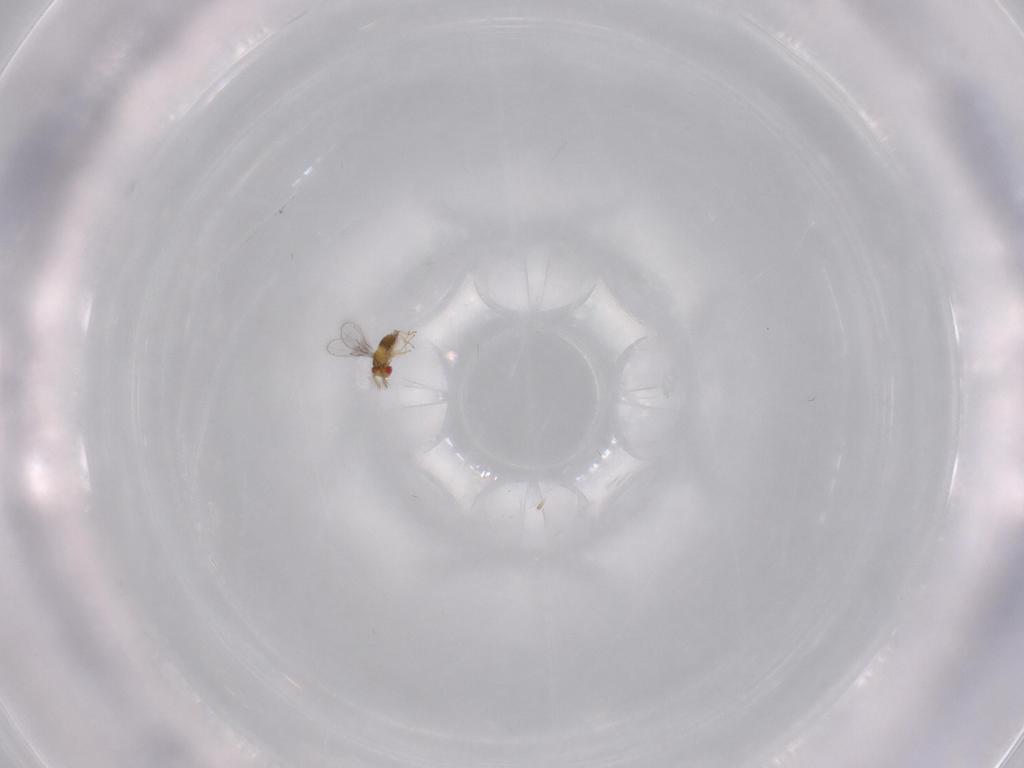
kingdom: Animalia
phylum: Arthropoda
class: Insecta
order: Hymenoptera
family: Scelionidae
